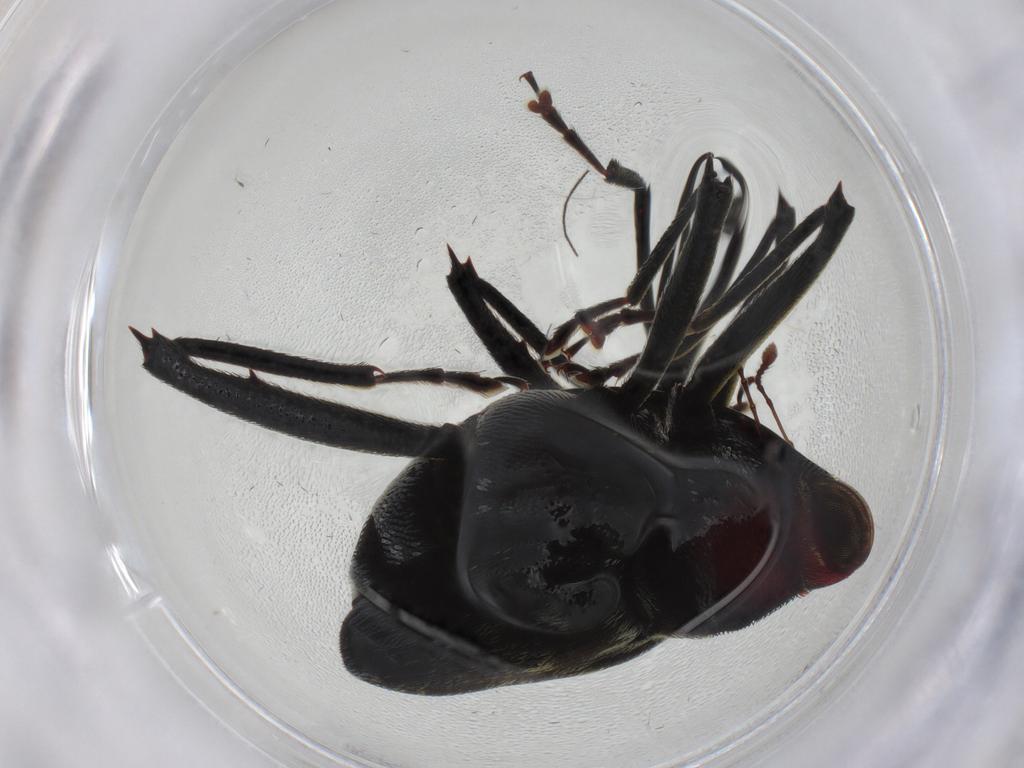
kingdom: Animalia
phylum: Arthropoda
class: Insecta
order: Coleoptera
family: Curculionidae
